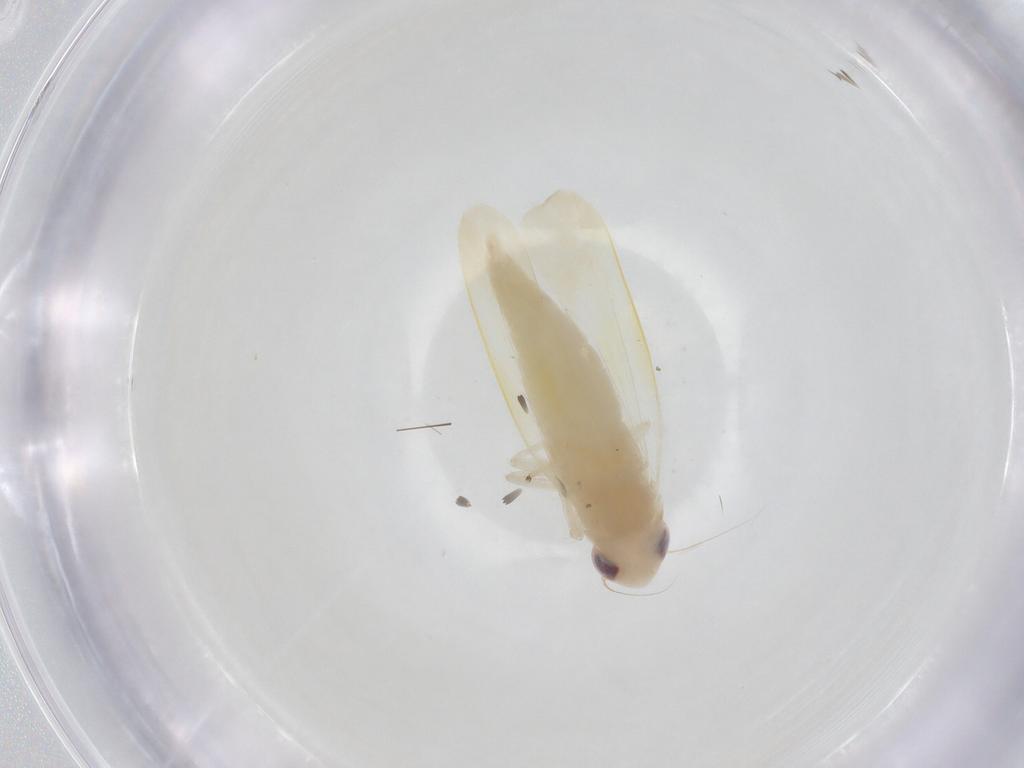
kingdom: Animalia
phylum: Arthropoda
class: Insecta
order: Hemiptera
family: Cicadellidae
